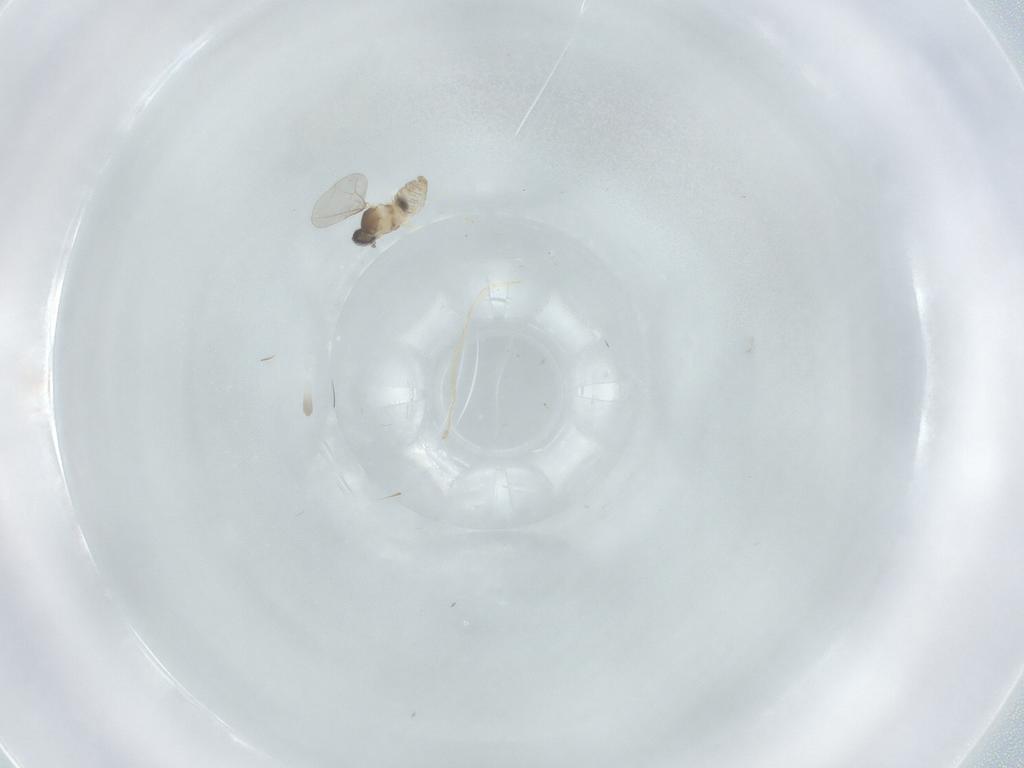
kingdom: Animalia
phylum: Arthropoda
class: Insecta
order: Diptera
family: Cecidomyiidae
